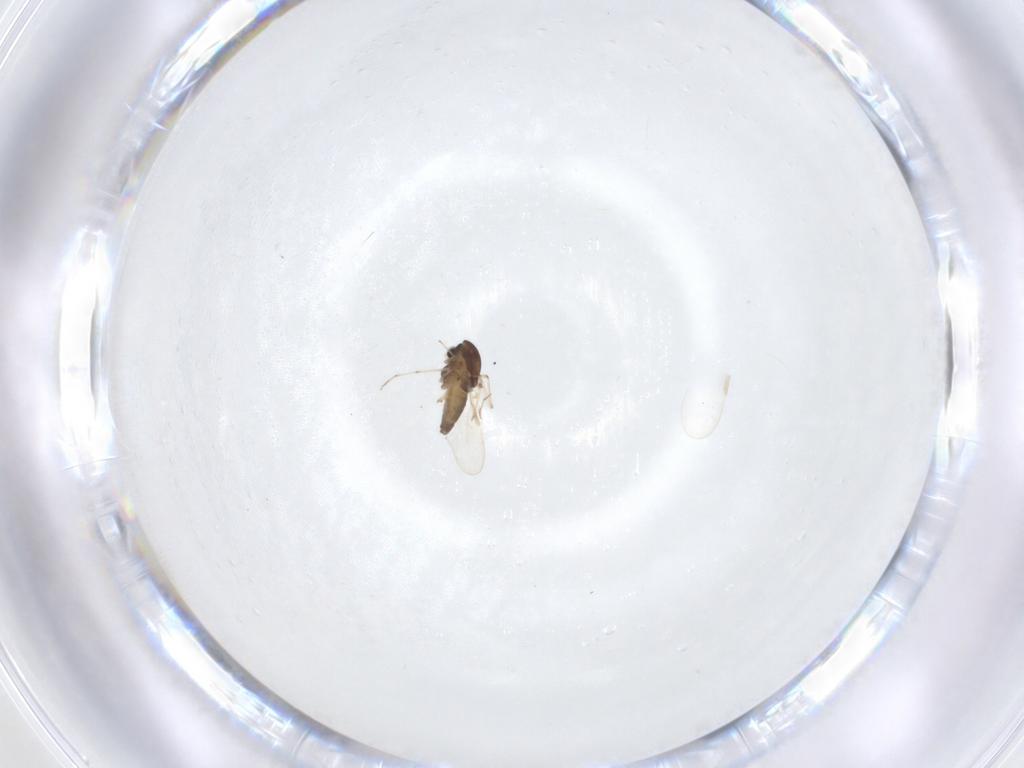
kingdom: Animalia
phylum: Arthropoda
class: Insecta
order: Diptera
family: Chironomidae
